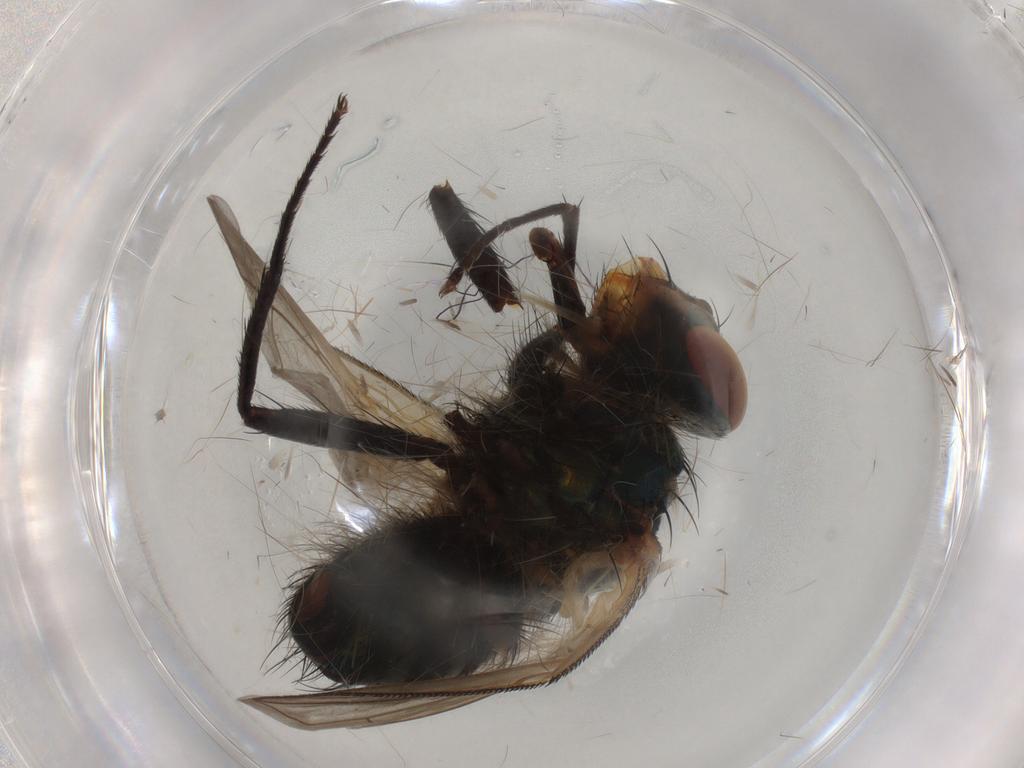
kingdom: Animalia
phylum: Arthropoda
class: Insecta
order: Diptera
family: Calliphoridae
